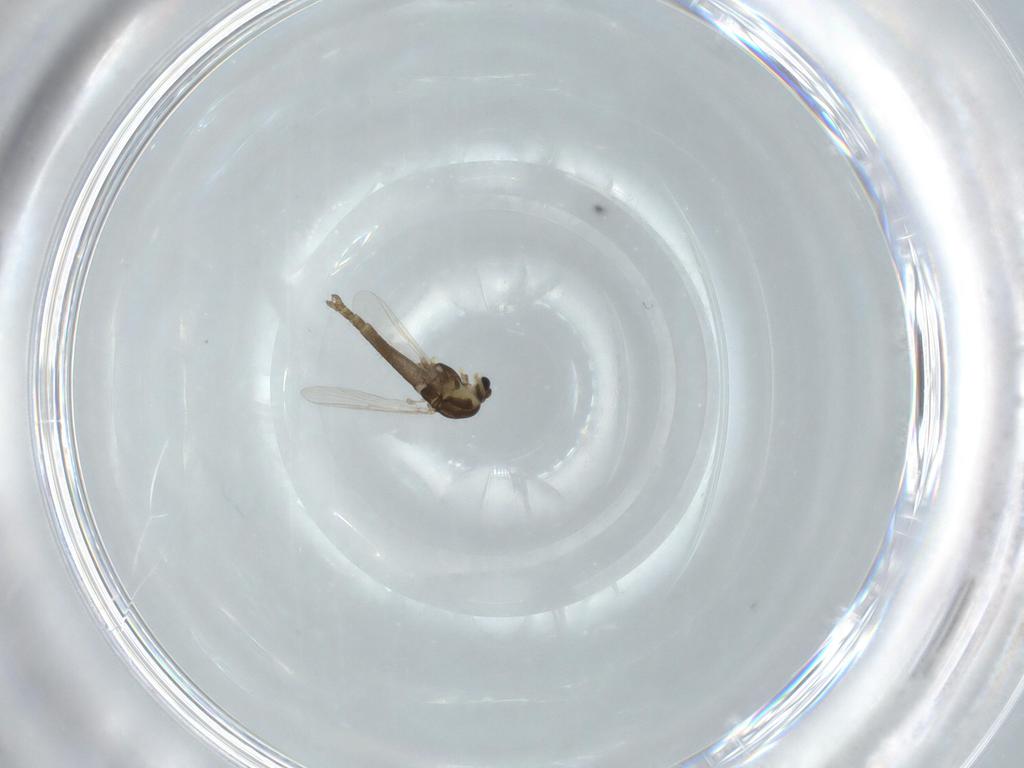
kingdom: Animalia
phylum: Arthropoda
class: Insecta
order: Diptera
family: Chironomidae
